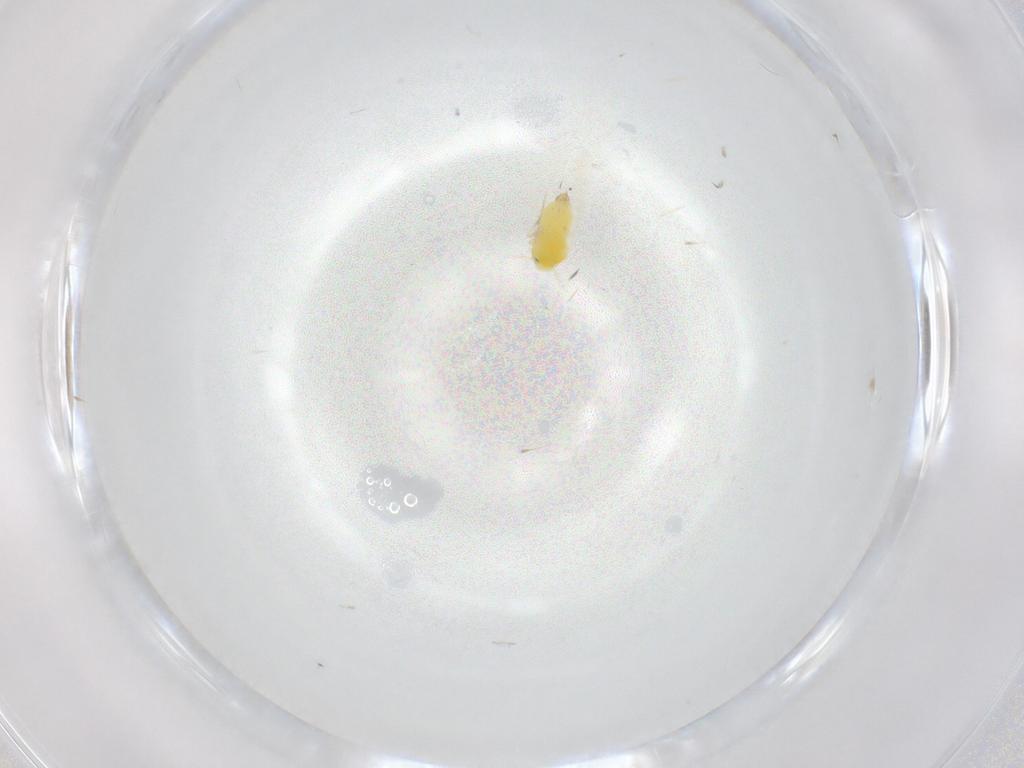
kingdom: Animalia
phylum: Arthropoda
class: Insecta
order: Hemiptera
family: Aleyrodidae
